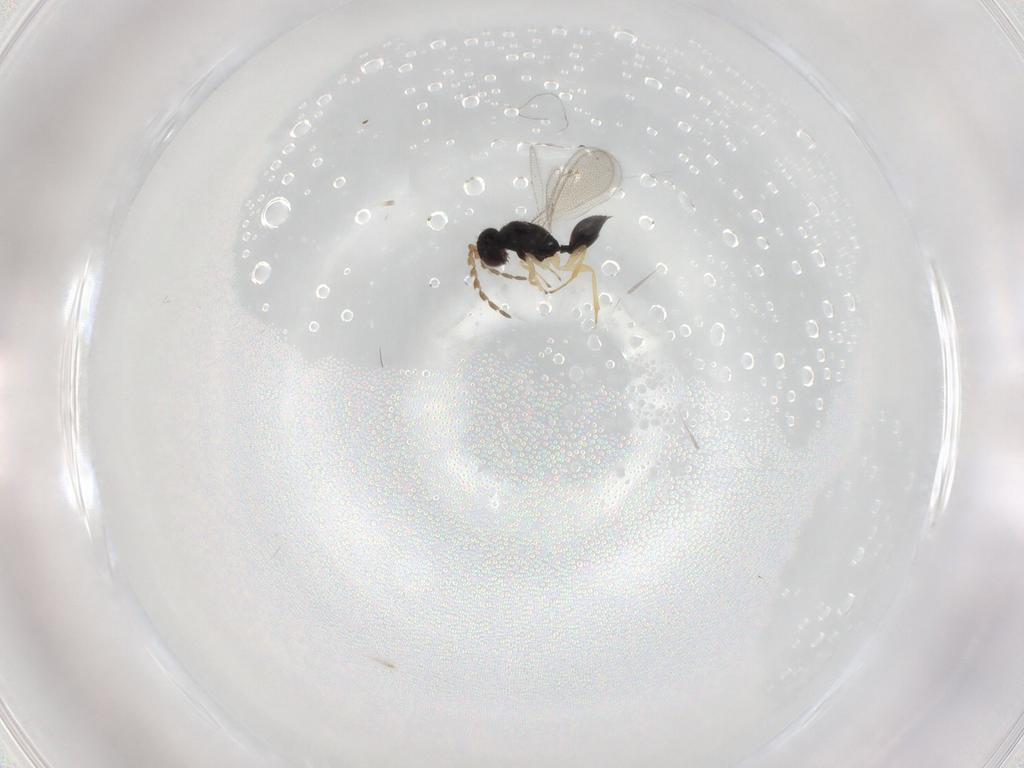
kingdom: Animalia
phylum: Arthropoda
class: Insecta
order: Hymenoptera
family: Eulophidae
